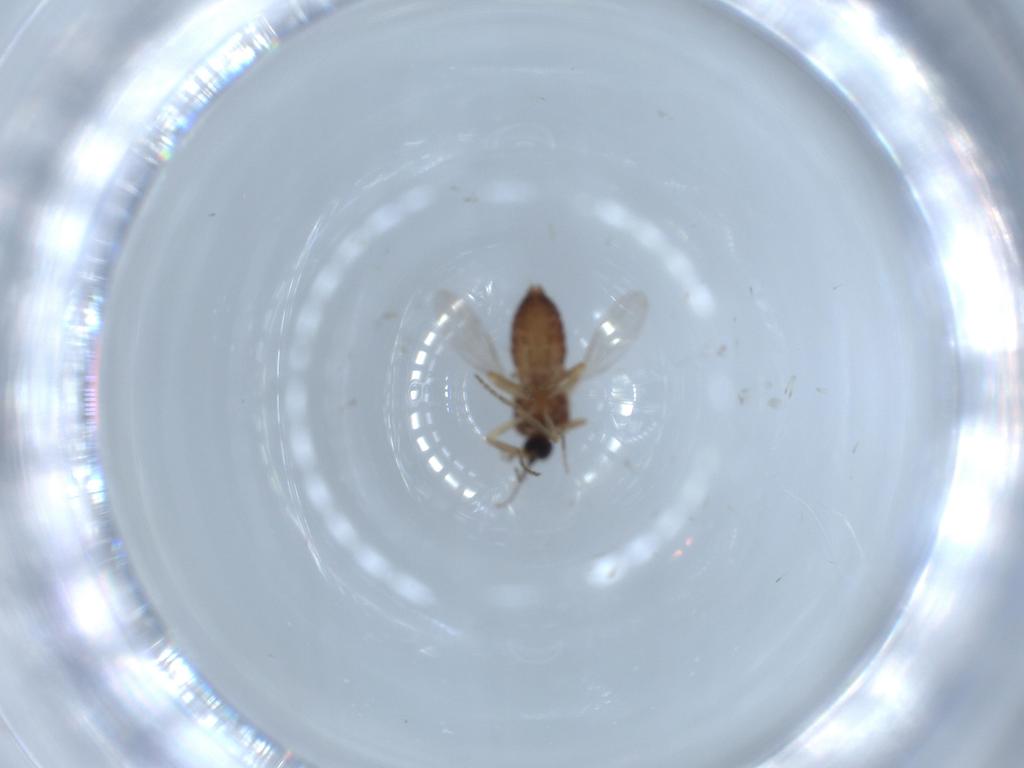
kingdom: Animalia
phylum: Arthropoda
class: Insecta
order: Diptera
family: Ceratopogonidae
